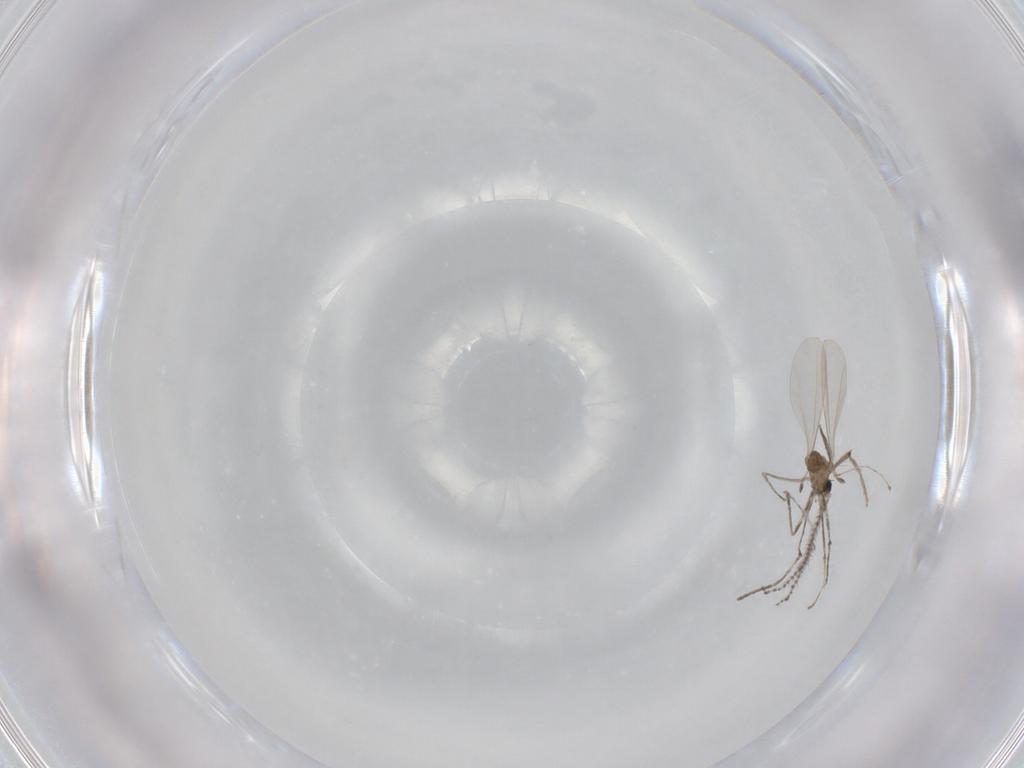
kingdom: Animalia
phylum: Arthropoda
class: Insecta
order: Diptera
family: Cecidomyiidae
